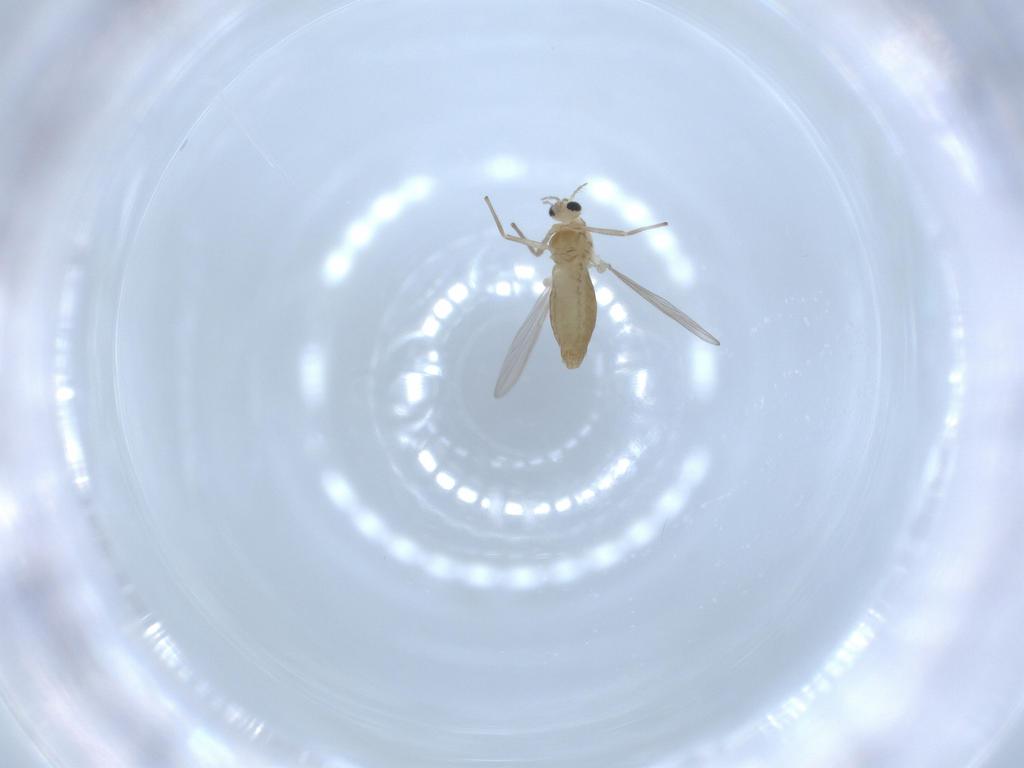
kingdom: Animalia
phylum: Arthropoda
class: Insecta
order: Diptera
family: Chironomidae
